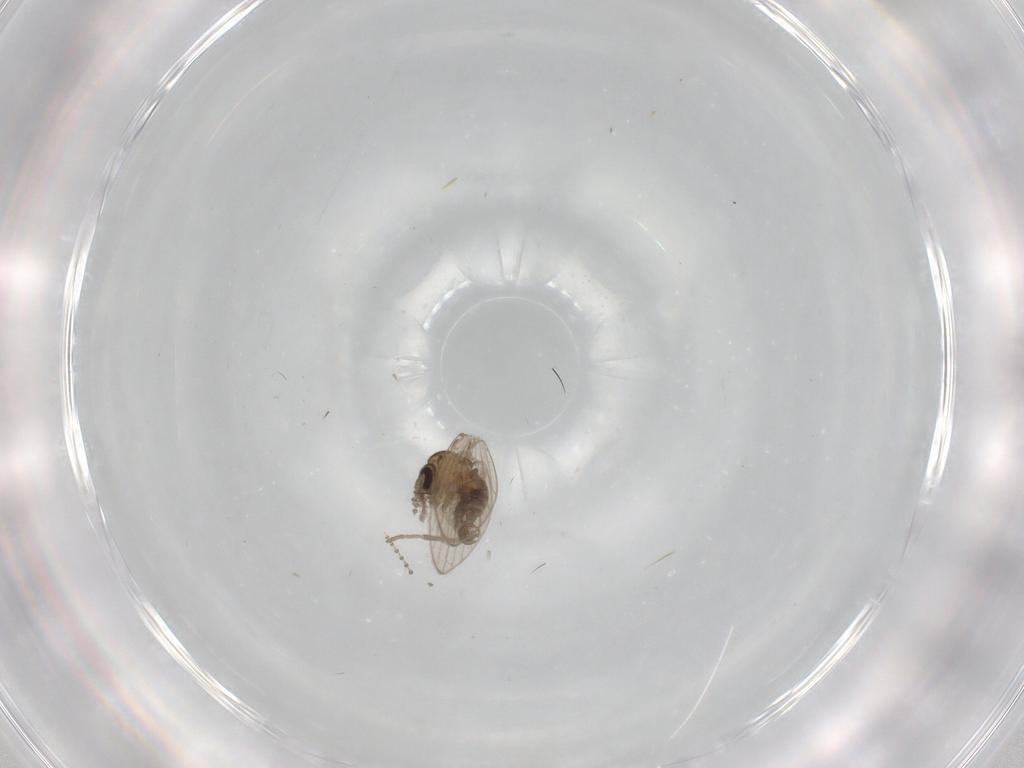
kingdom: Animalia
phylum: Arthropoda
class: Insecta
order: Diptera
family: Psychodidae
